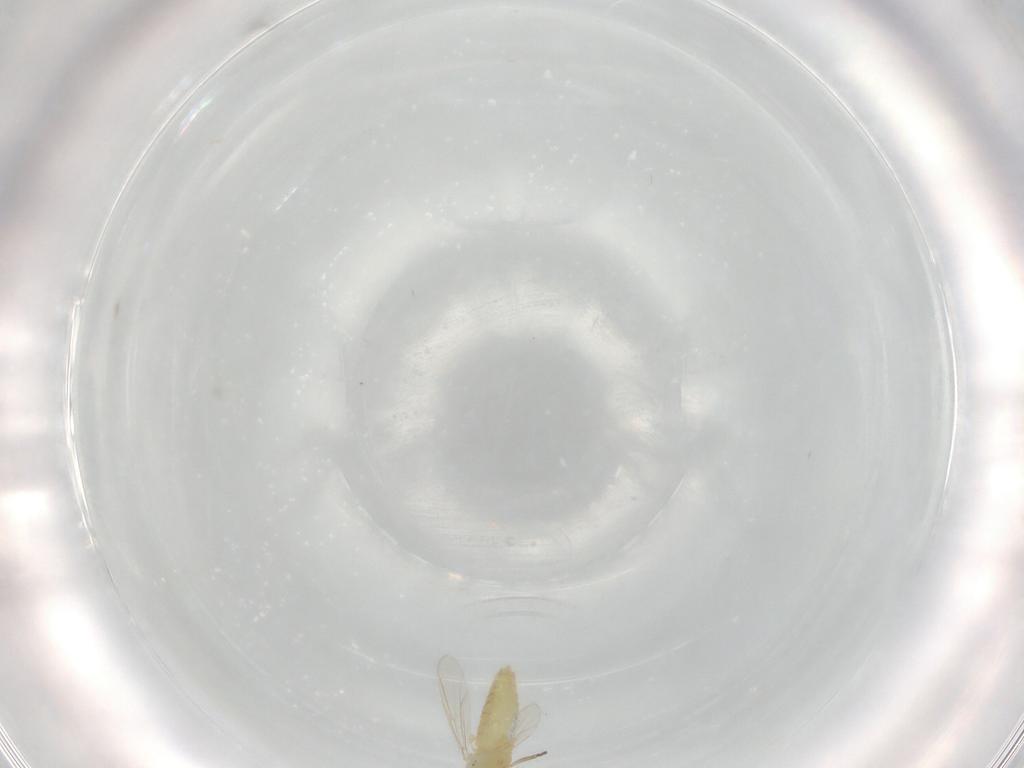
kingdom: Animalia
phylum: Arthropoda
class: Insecta
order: Diptera
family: Chironomidae
